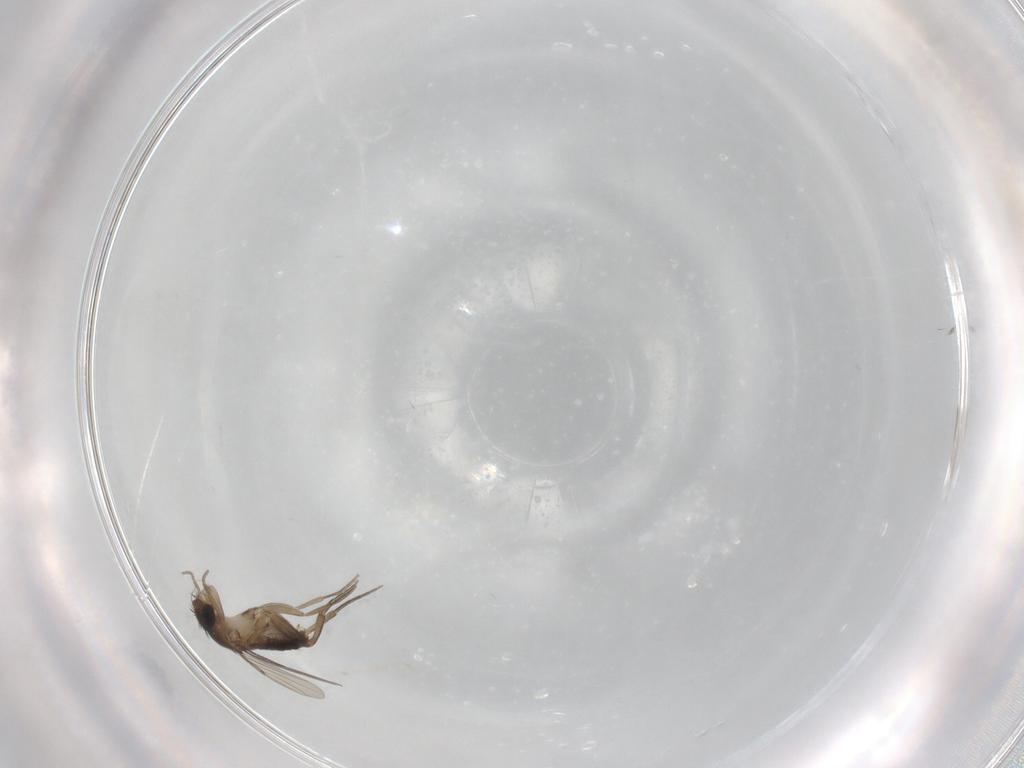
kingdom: Animalia
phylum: Arthropoda
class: Insecta
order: Diptera
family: Phoridae
